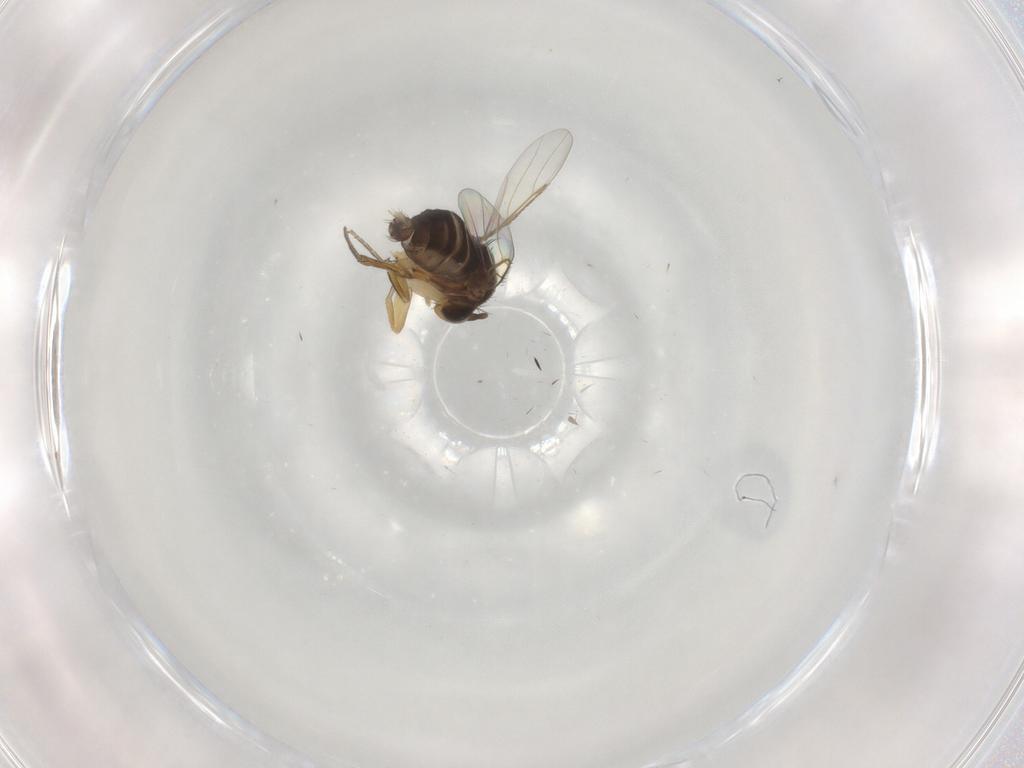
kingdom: Animalia
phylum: Arthropoda
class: Insecta
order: Diptera
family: Phoridae
